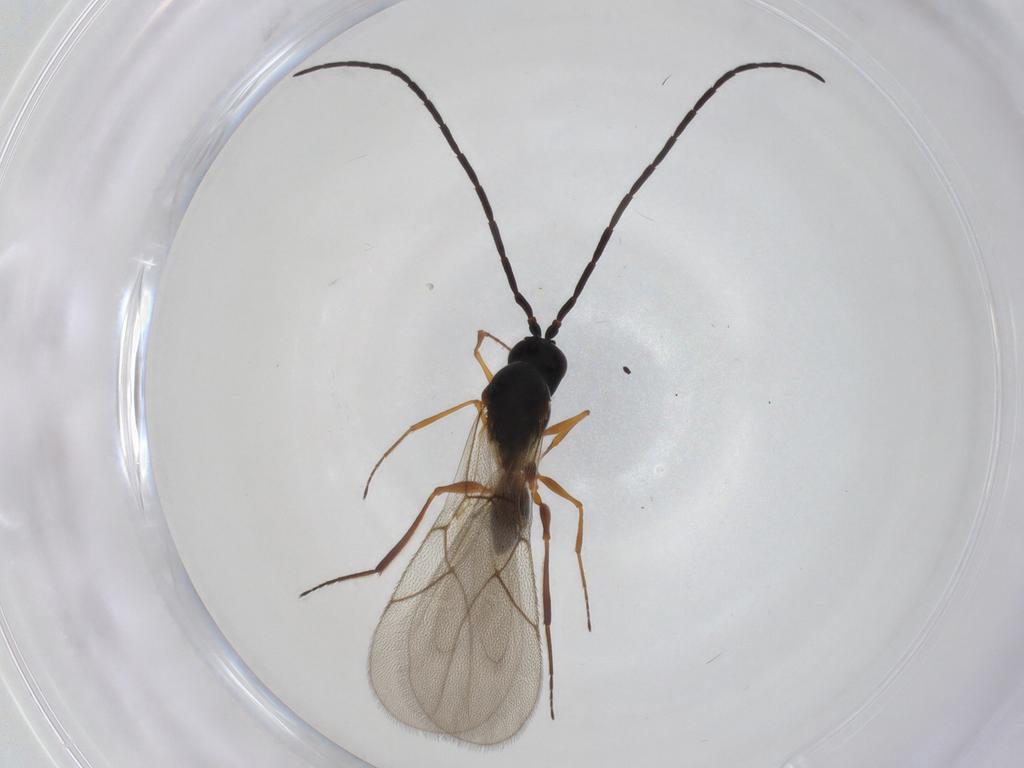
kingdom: Animalia
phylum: Arthropoda
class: Insecta
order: Hymenoptera
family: Figitidae
